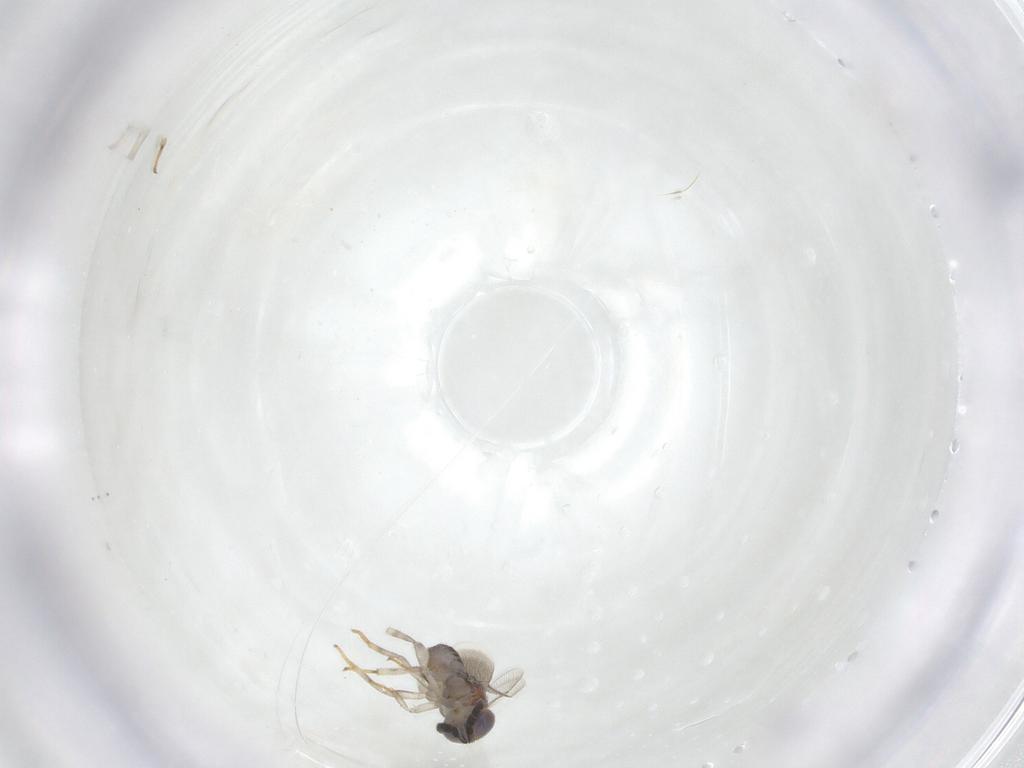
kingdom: Animalia
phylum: Arthropoda
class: Insecta
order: Hymenoptera
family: Aphelinidae
